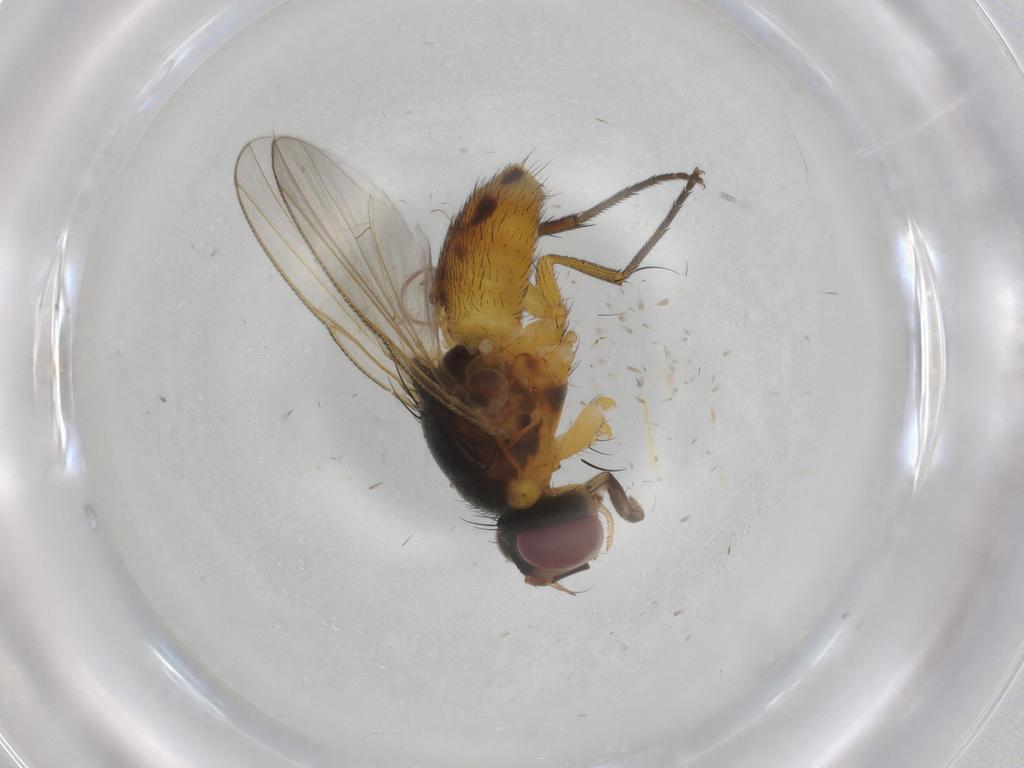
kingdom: Animalia
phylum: Arthropoda
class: Insecta
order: Diptera
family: Muscidae
